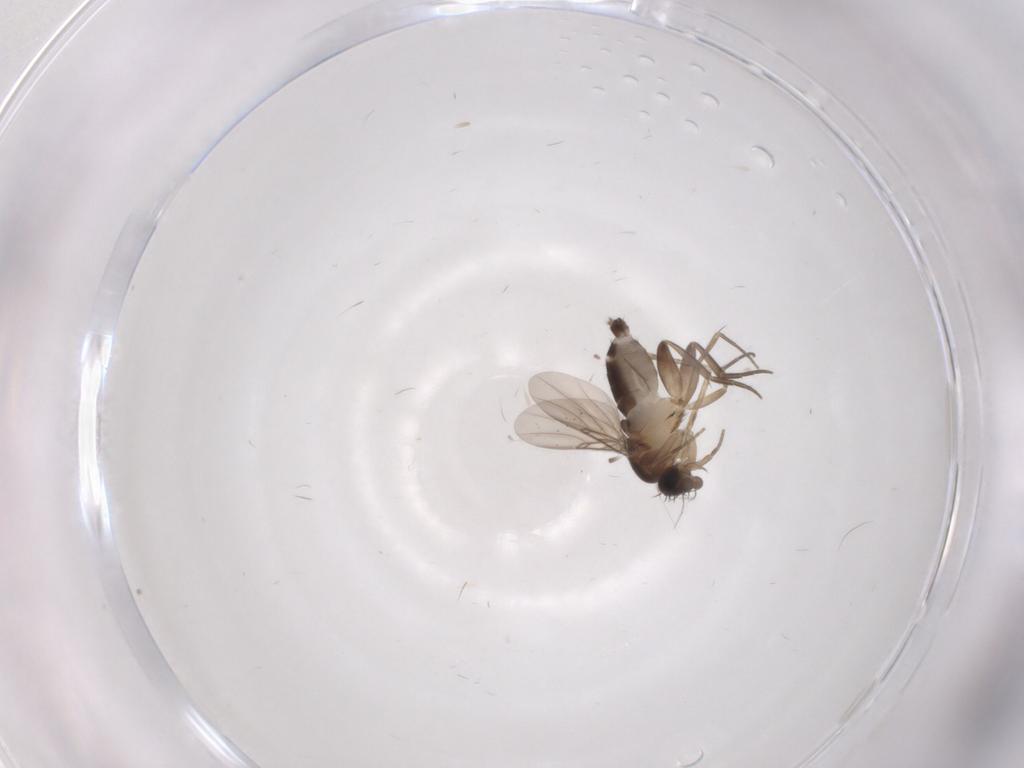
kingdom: Animalia
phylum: Arthropoda
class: Insecta
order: Diptera
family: Phoridae
